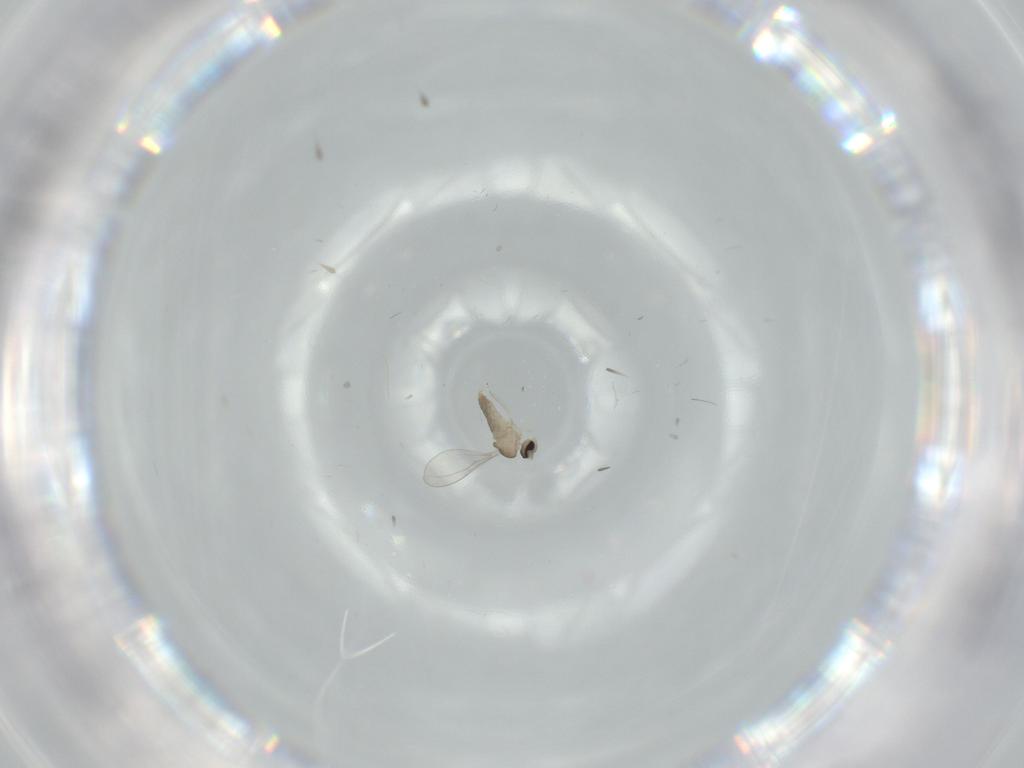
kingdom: Animalia
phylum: Arthropoda
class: Insecta
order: Diptera
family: Cecidomyiidae
